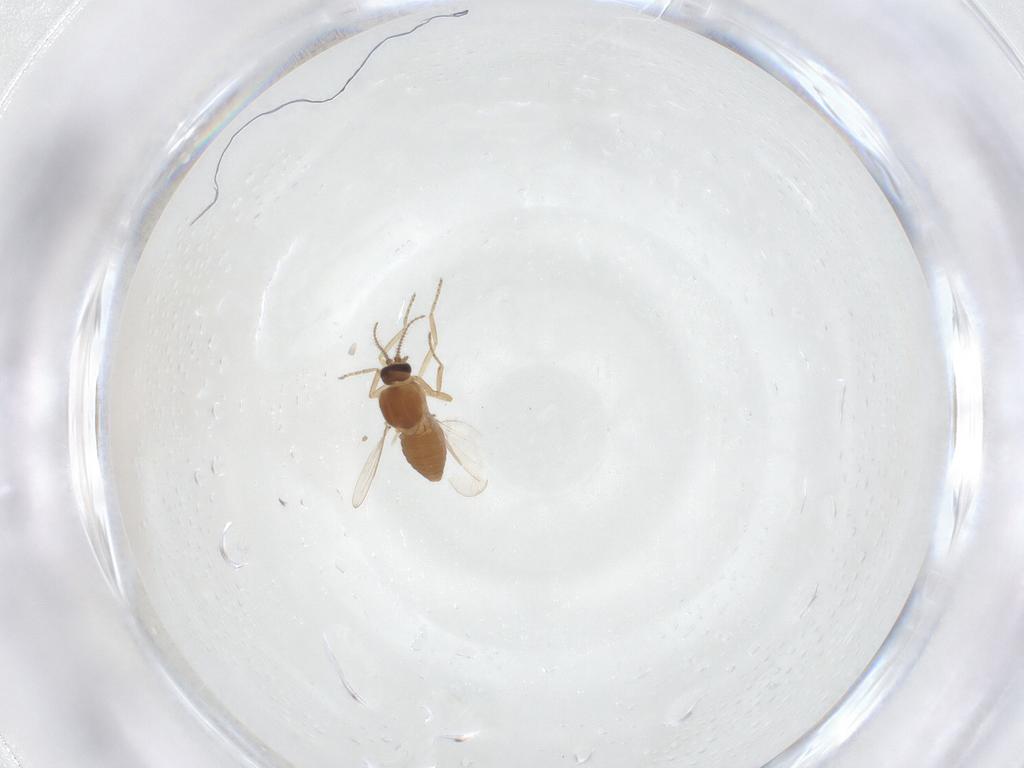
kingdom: Animalia
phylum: Arthropoda
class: Insecta
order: Diptera
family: Ceratopogonidae
